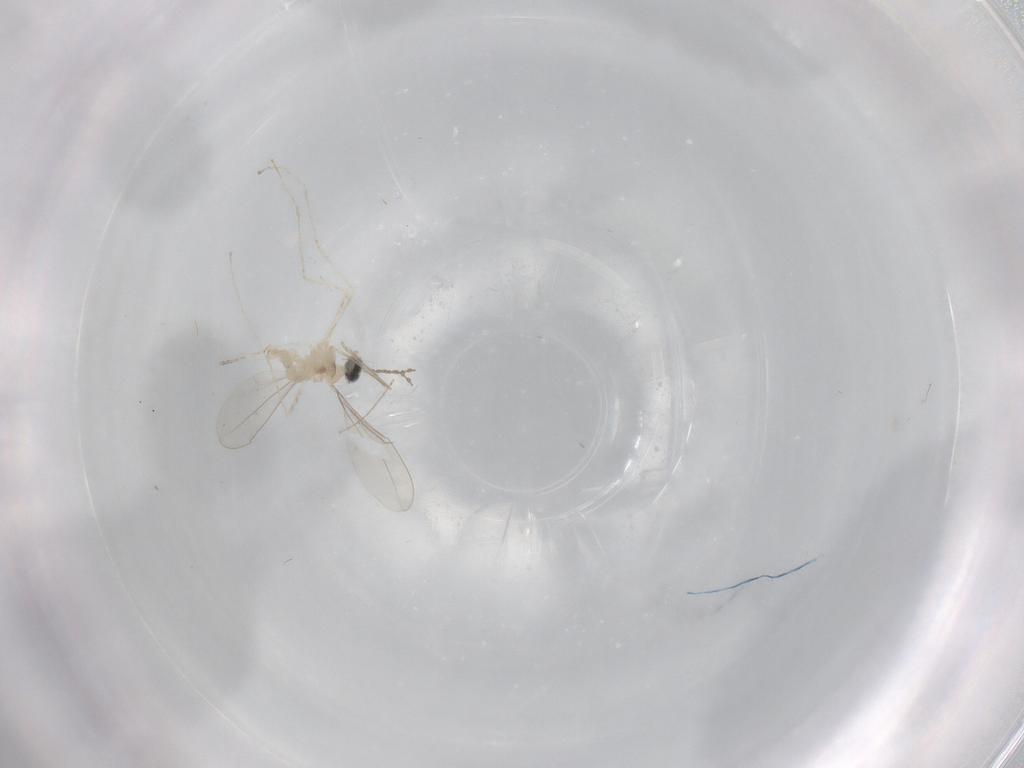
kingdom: Animalia
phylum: Arthropoda
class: Insecta
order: Diptera
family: Cecidomyiidae
